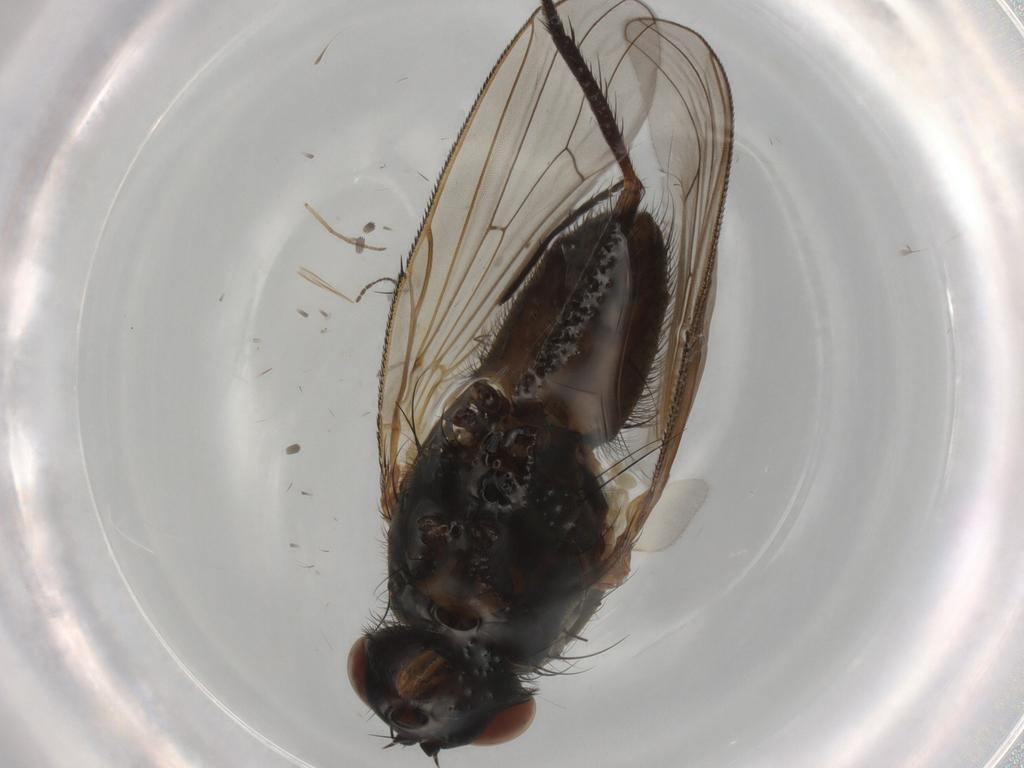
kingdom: Animalia
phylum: Arthropoda
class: Insecta
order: Diptera
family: Anthomyiidae
